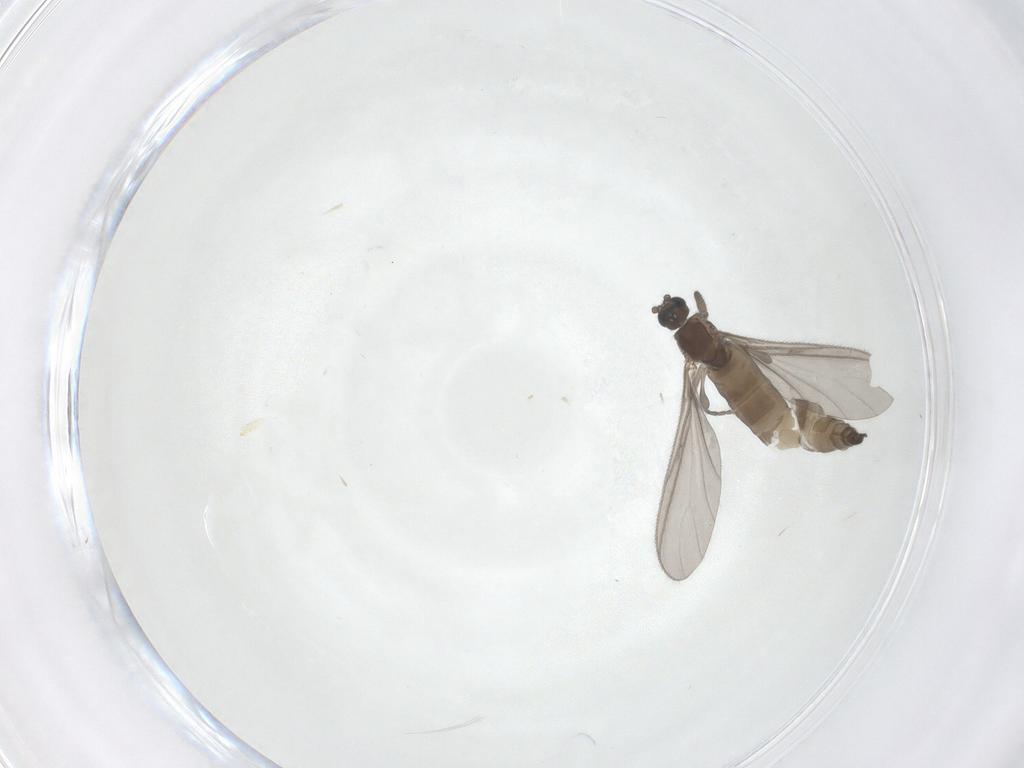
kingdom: Animalia
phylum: Arthropoda
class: Insecta
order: Diptera
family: Sciaridae
